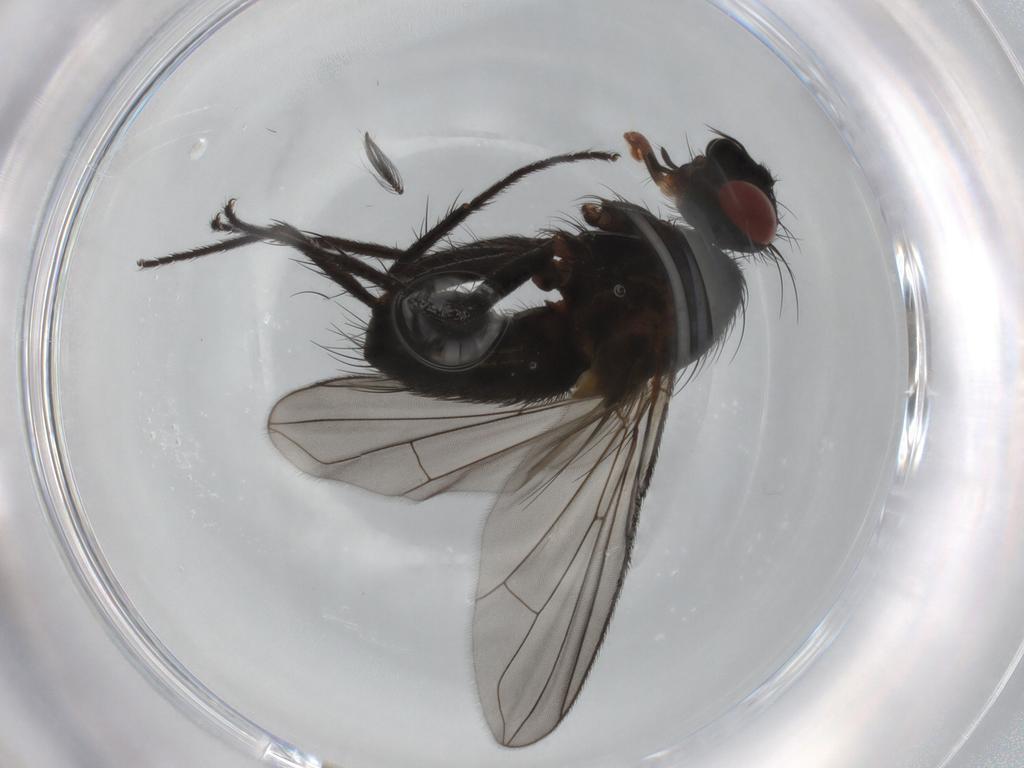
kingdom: Animalia
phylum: Arthropoda
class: Insecta
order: Diptera
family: Tachinidae
